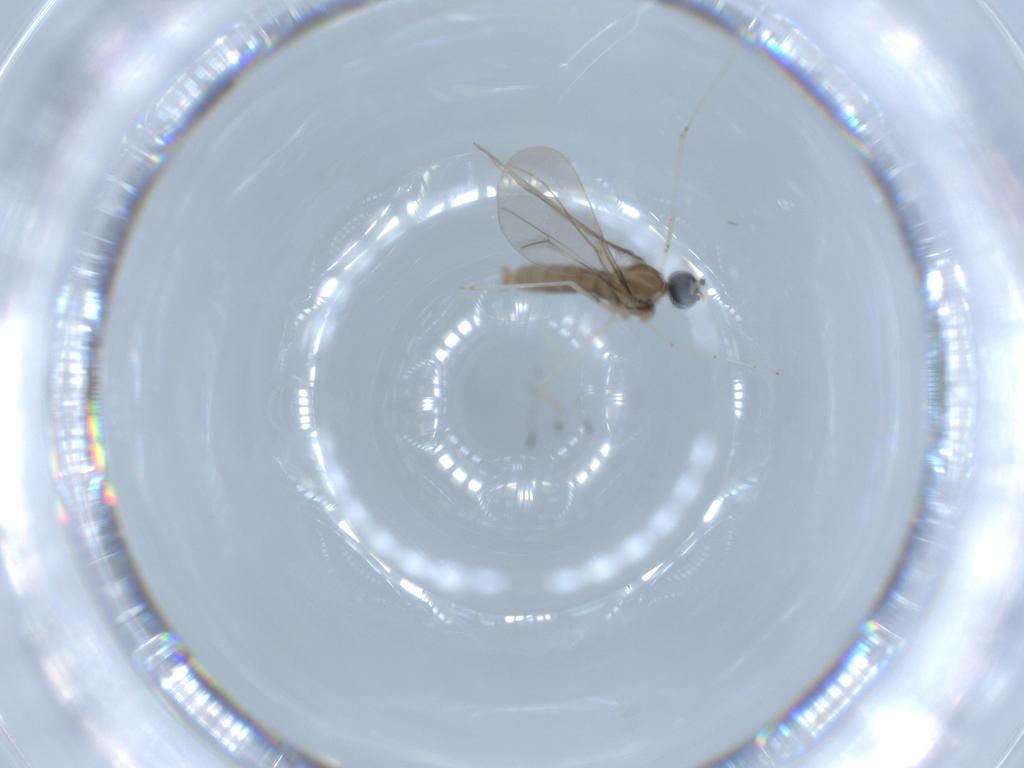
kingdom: Animalia
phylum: Arthropoda
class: Insecta
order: Diptera
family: Cecidomyiidae
